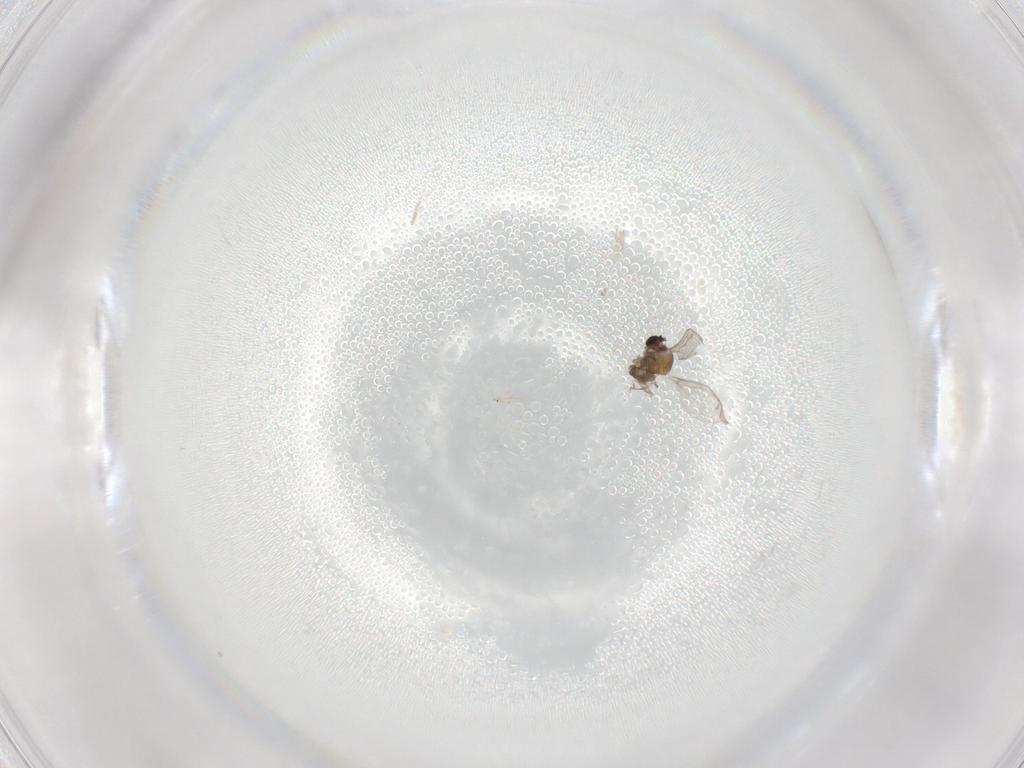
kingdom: Animalia
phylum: Arthropoda
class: Insecta
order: Diptera
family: Cecidomyiidae
